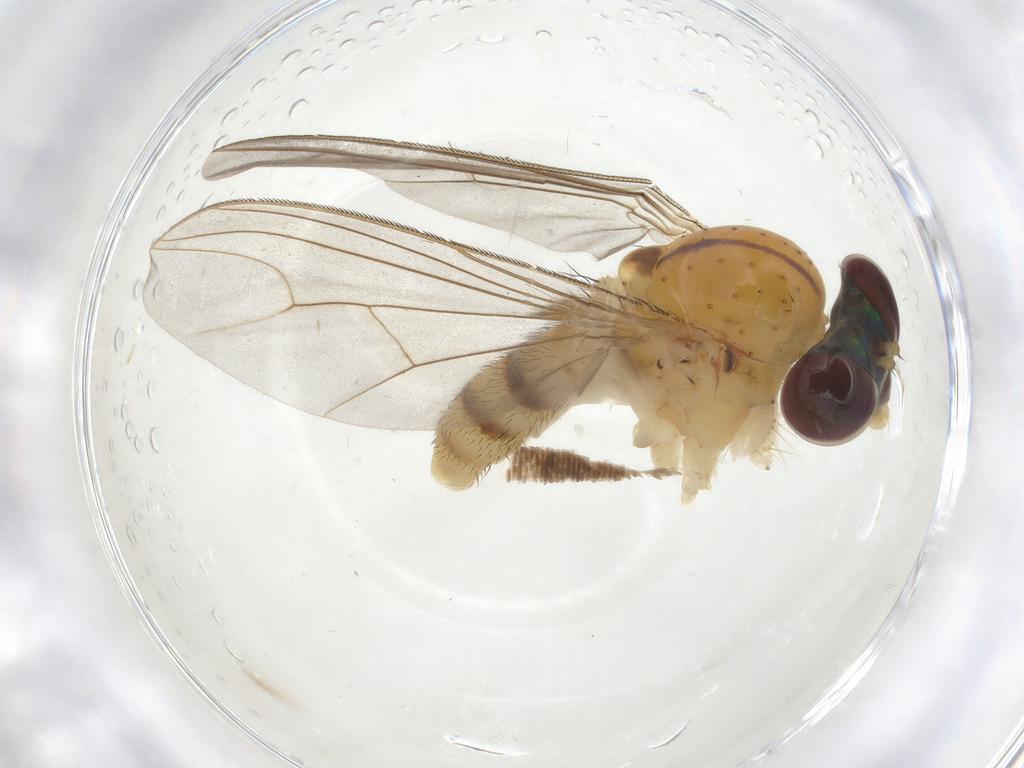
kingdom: Animalia
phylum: Arthropoda
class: Insecta
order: Diptera
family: Dolichopodidae
